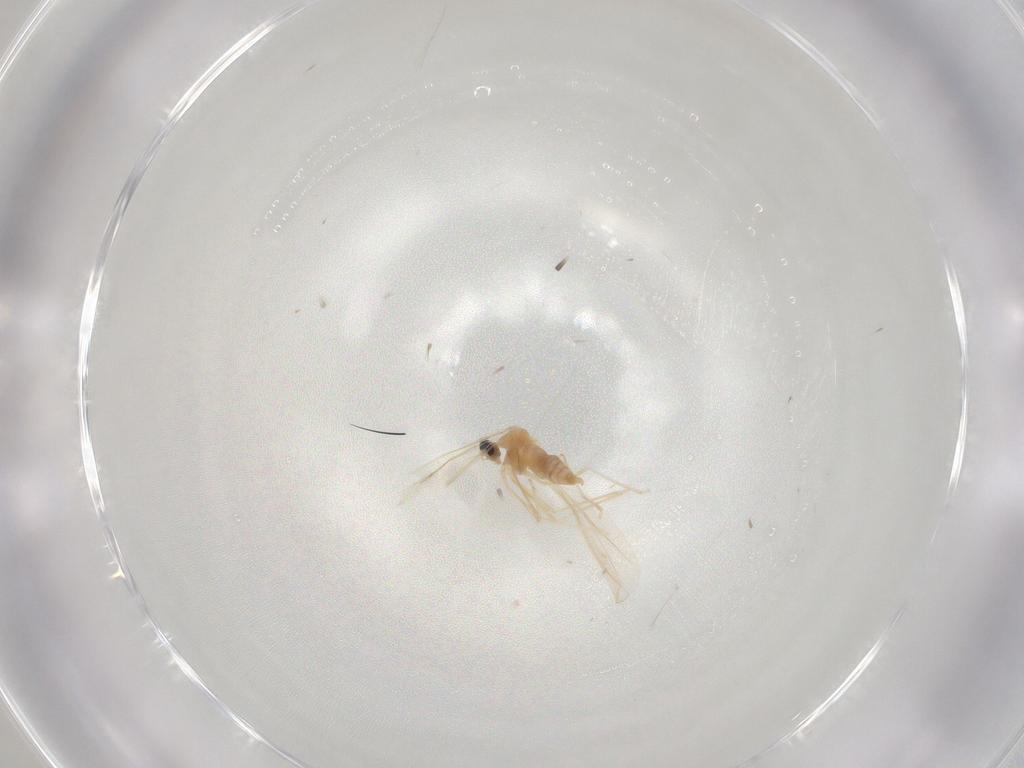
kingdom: Animalia
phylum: Arthropoda
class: Insecta
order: Diptera
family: Cecidomyiidae
